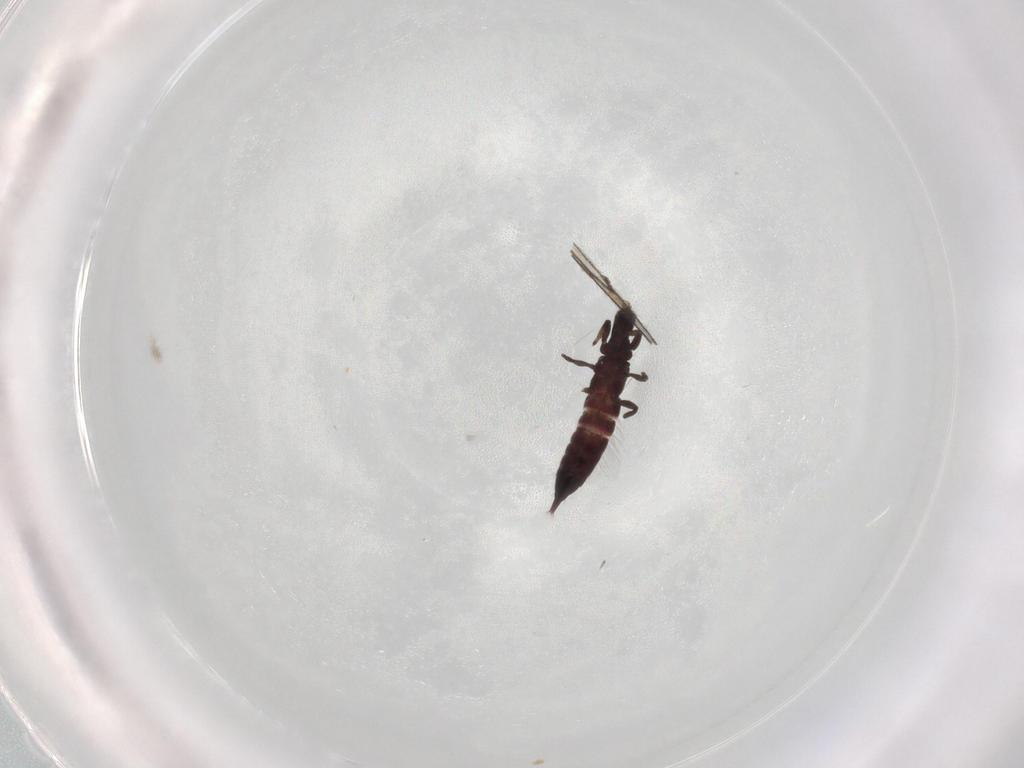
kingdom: Animalia
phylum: Arthropoda
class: Insecta
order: Thysanoptera
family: Phlaeothripidae
